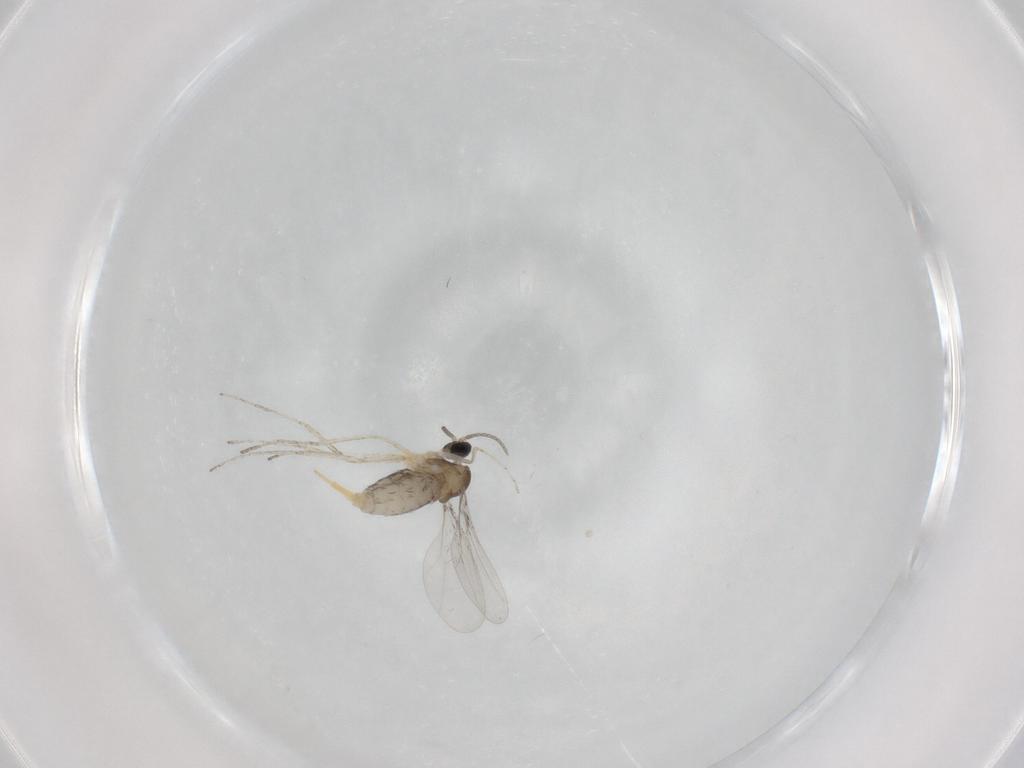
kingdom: Animalia
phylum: Arthropoda
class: Insecta
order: Diptera
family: Cecidomyiidae
